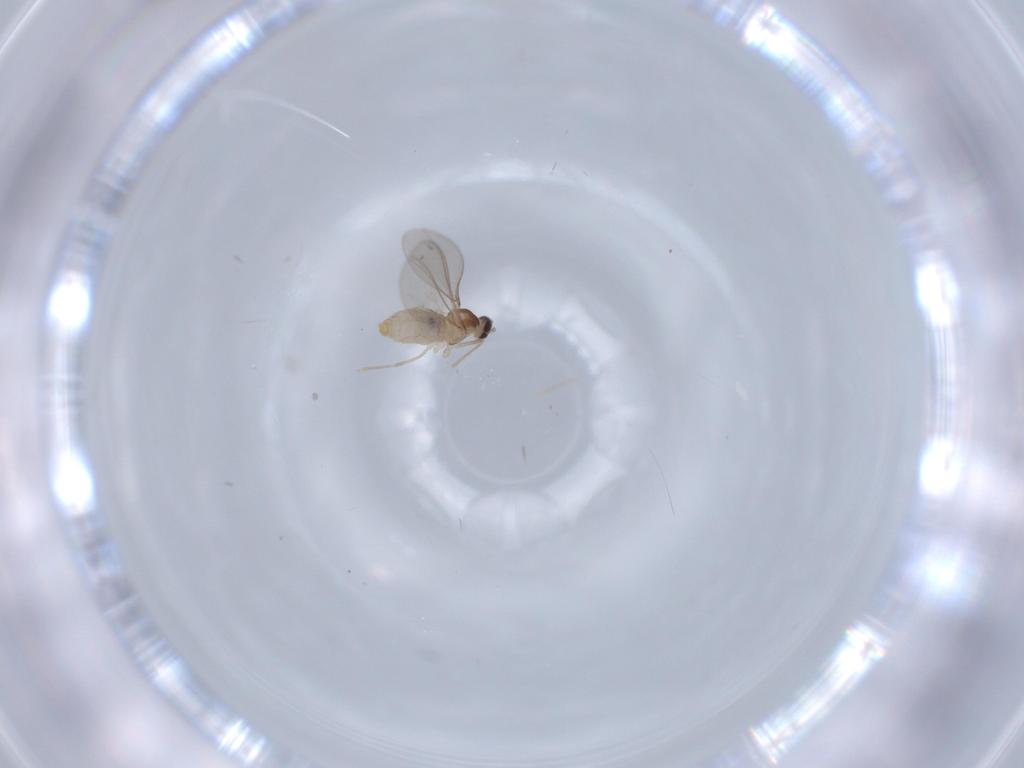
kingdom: Animalia
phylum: Arthropoda
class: Insecta
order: Diptera
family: Cecidomyiidae
